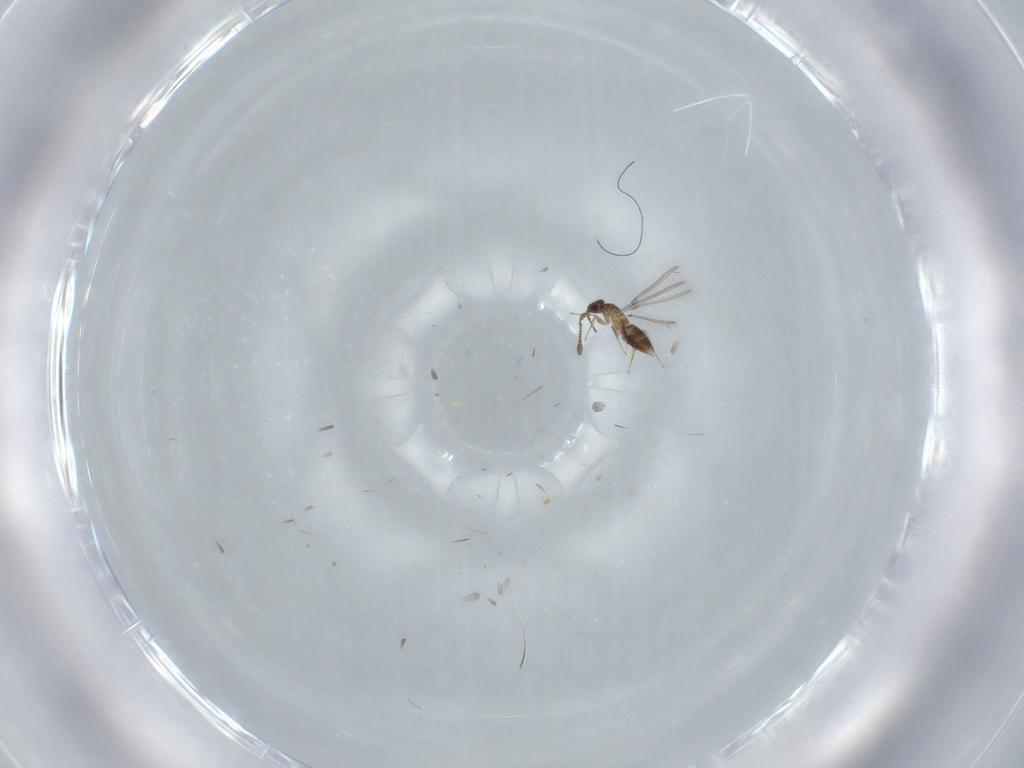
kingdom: Animalia
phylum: Arthropoda
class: Insecta
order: Hymenoptera
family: Mymaridae
